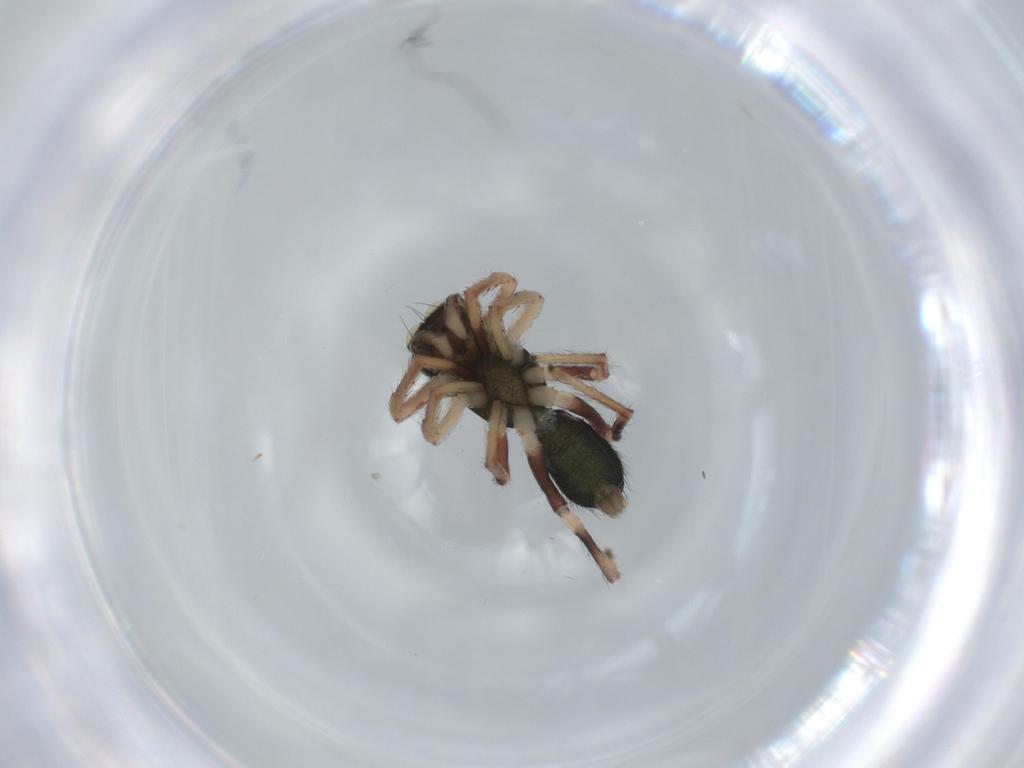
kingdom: Animalia
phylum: Arthropoda
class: Arachnida
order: Araneae
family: Salticidae
